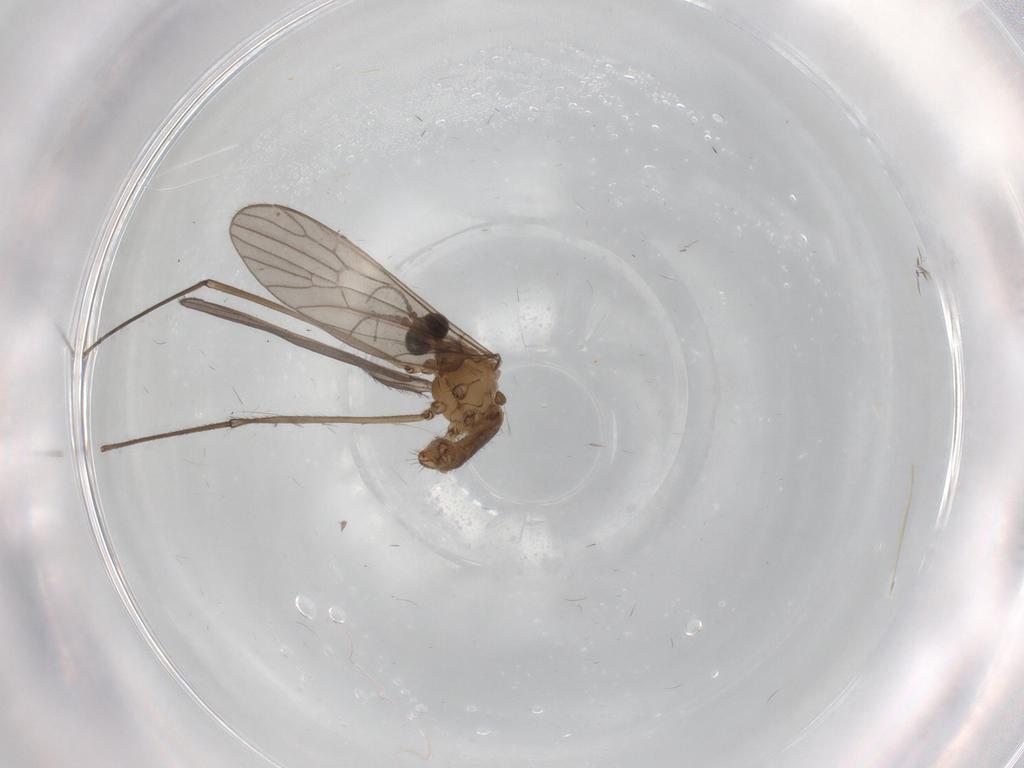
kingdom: Animalia
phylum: Arthropoda
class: Insecta
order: Diptera
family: Limoniidae
